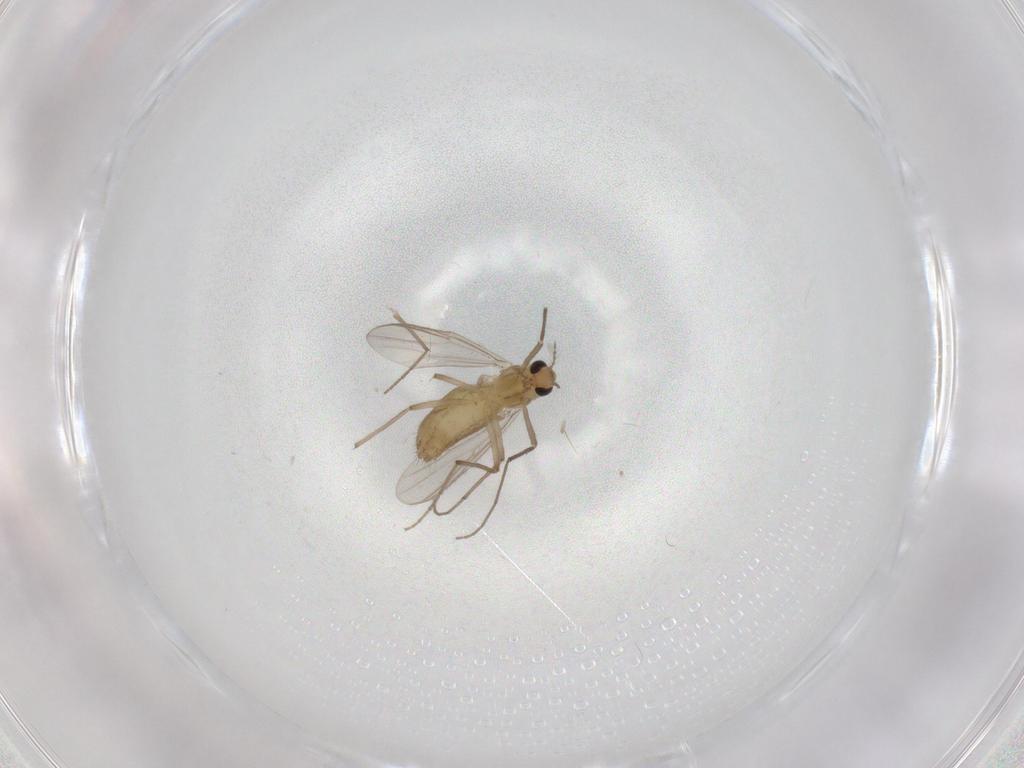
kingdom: Animalia
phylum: Arthropoda
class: Insecta
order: Diptera
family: Chironomidae
